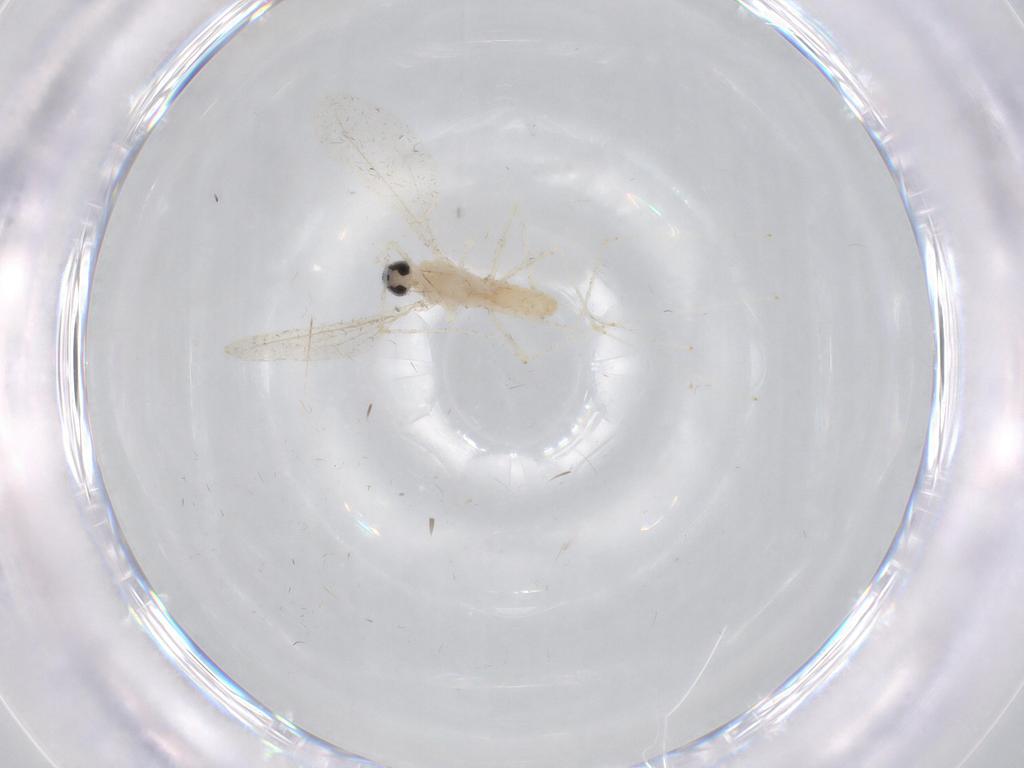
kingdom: Animalia
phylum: Arthropoda
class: Insecta
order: Diptera
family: Cecidomyiidae
